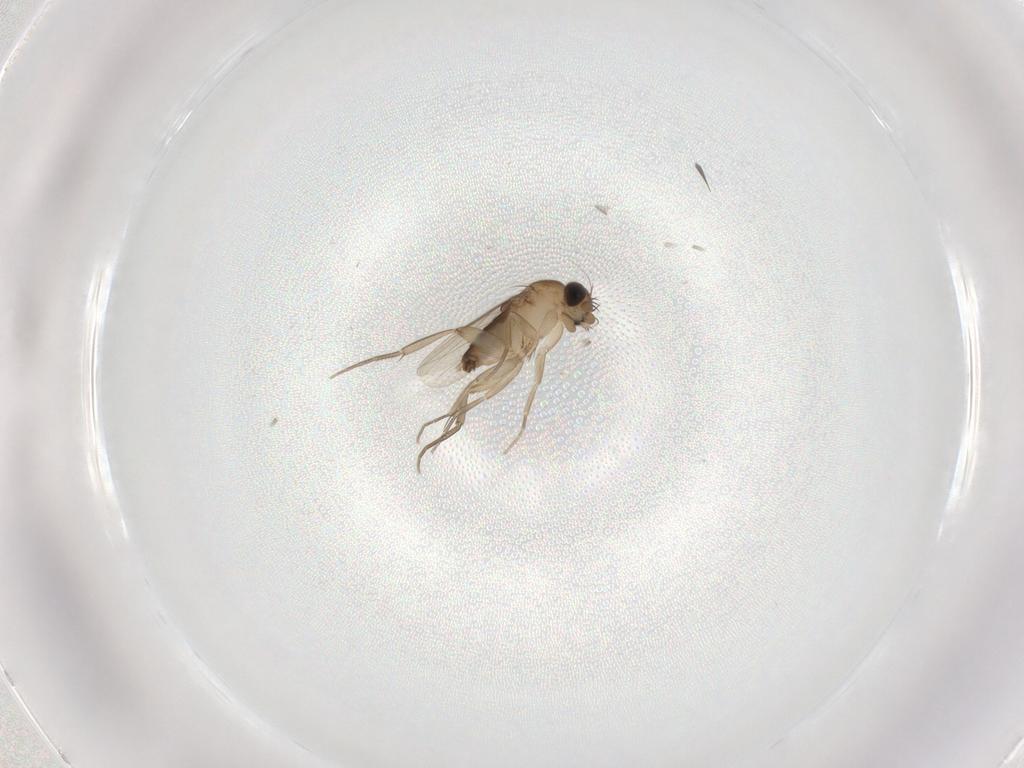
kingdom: Animalia
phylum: Arthropoda
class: Insecta
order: Diptera
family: Phoridae
